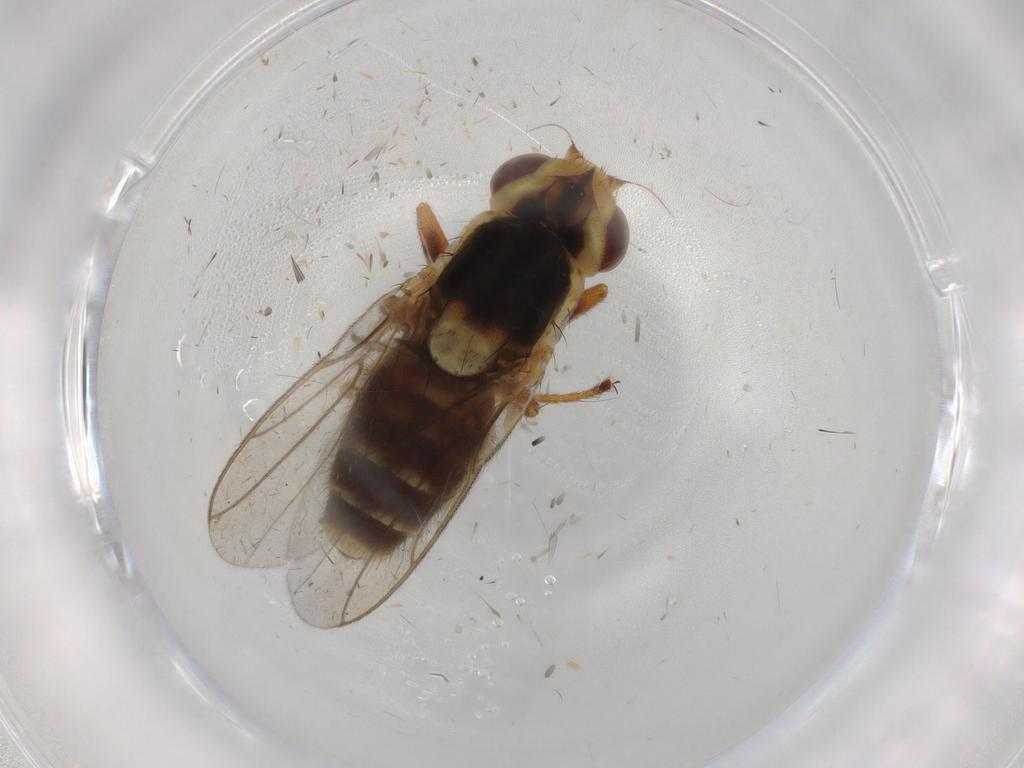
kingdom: Animalia
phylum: Arthropoda
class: Insecta
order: Diptera
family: Chloropidae
